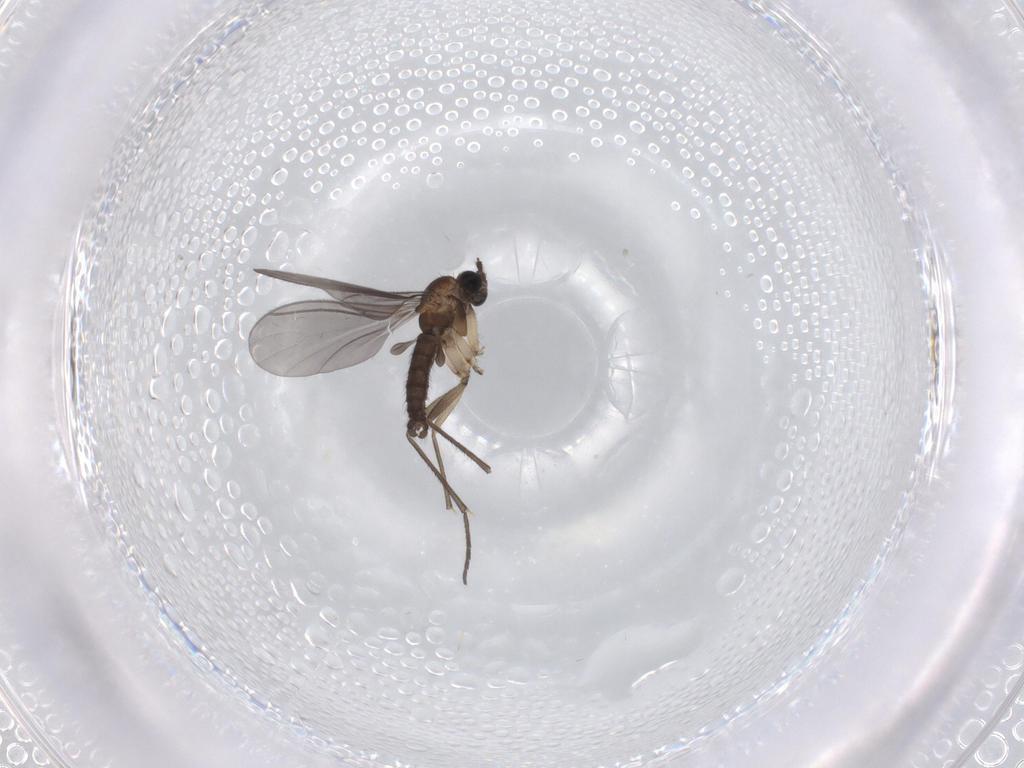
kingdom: Animalia
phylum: Arthropoda
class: Insecta
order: Diptera
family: Sciaridae
